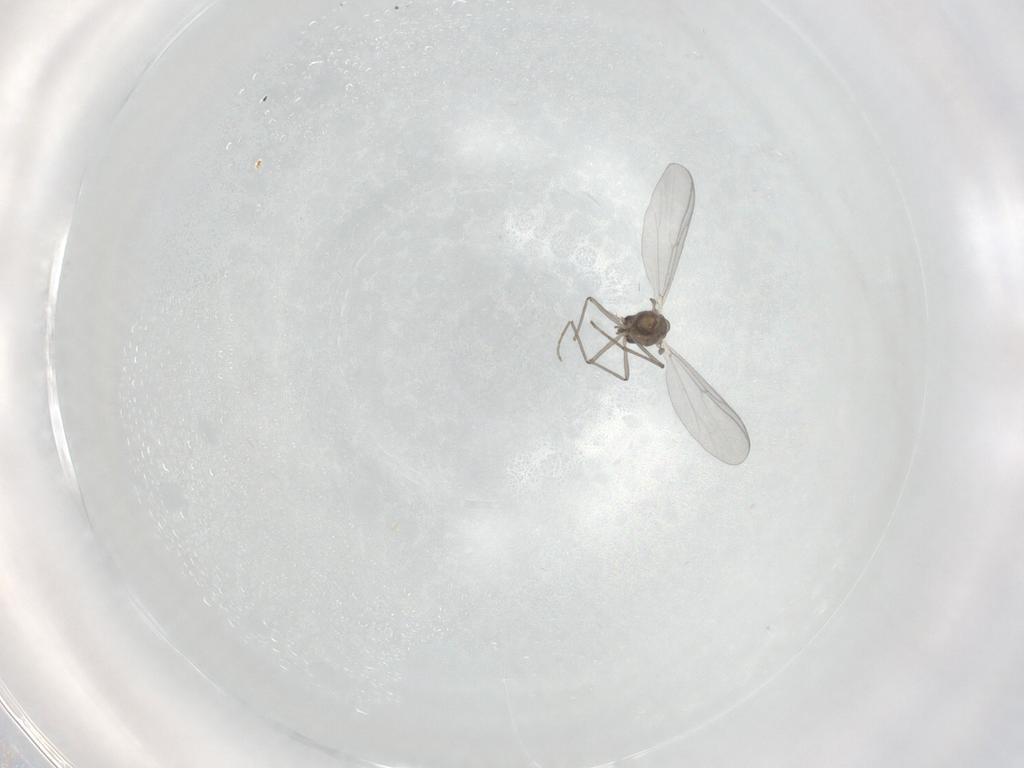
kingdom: Animalia
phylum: Arthropoda
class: Insecta
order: Diptera
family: Chironomidae
